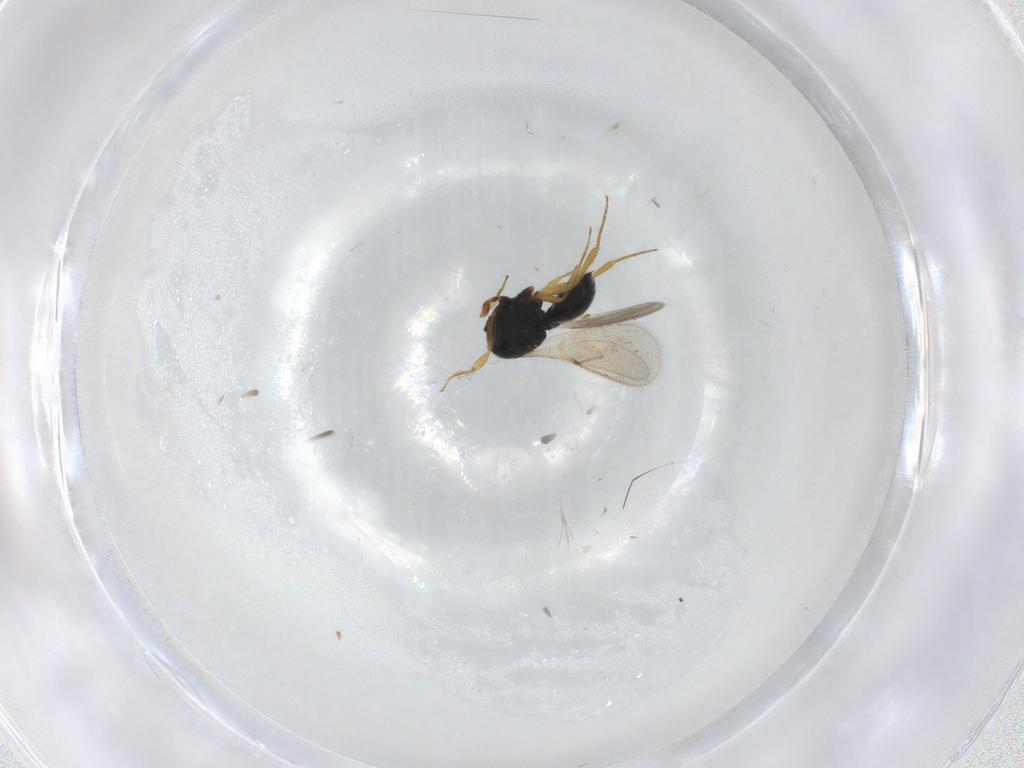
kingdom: Animalia
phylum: Arthropoda
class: Insecta
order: Hymenoptera
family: Scelionidae
